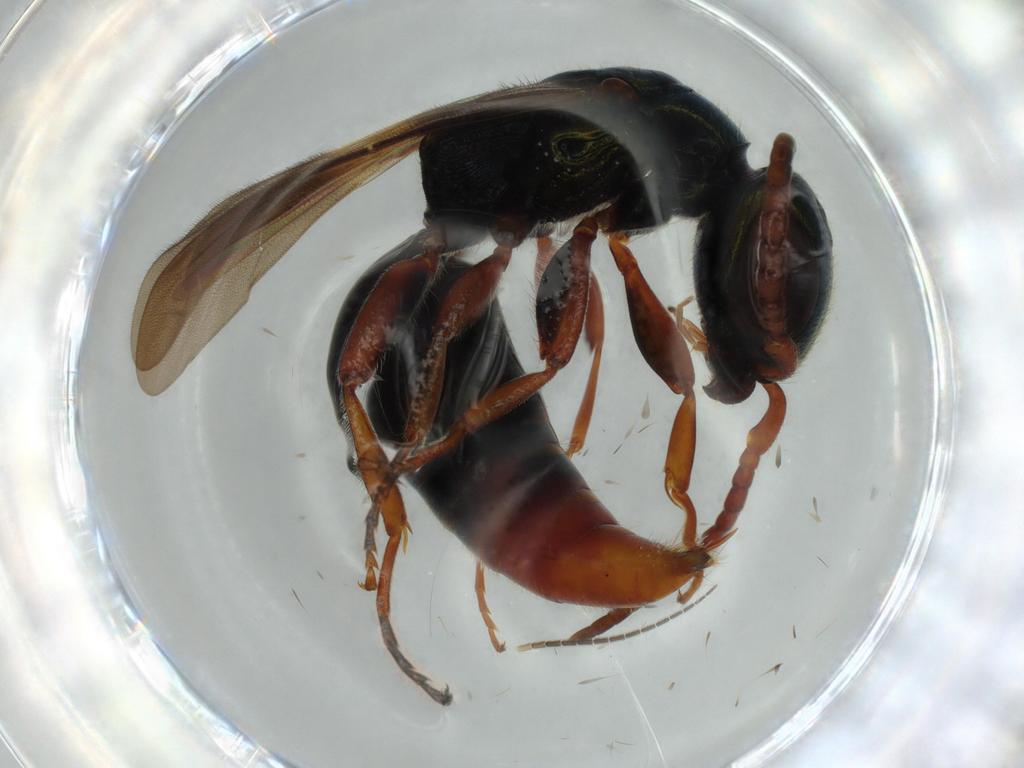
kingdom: Animalia
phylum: Arthropoda
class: Insecta
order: Hymenoptera
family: Bethylidae
